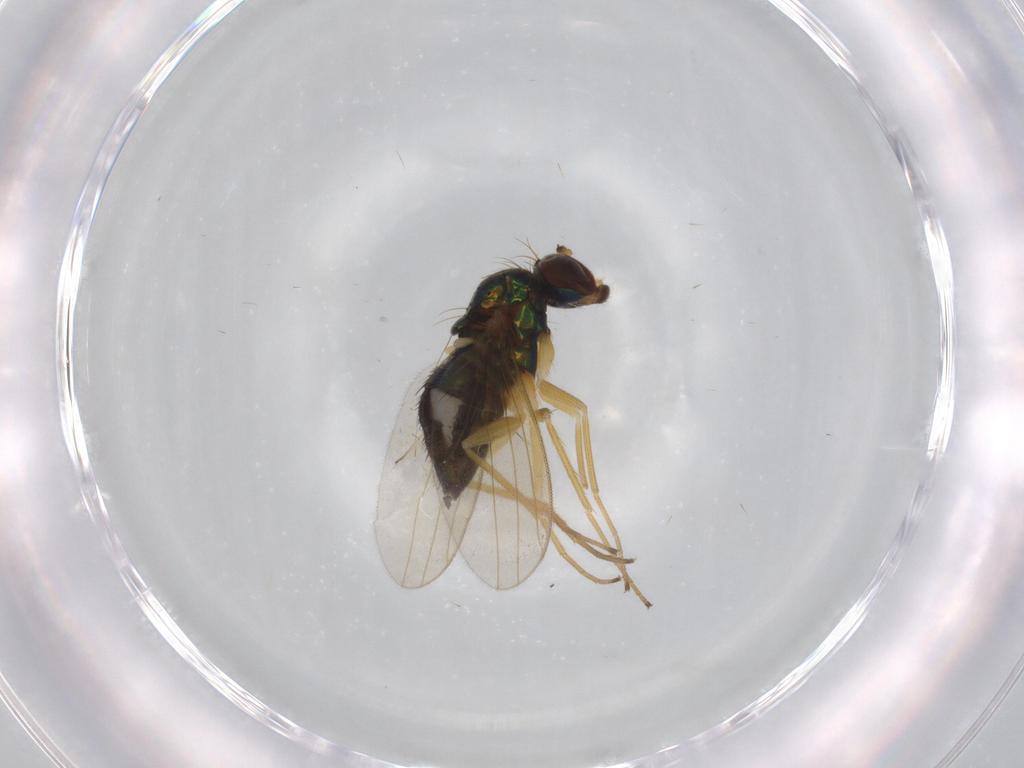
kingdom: Animalia
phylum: Arthropoda
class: Insecta
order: Diptera
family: Dolichopodidae
